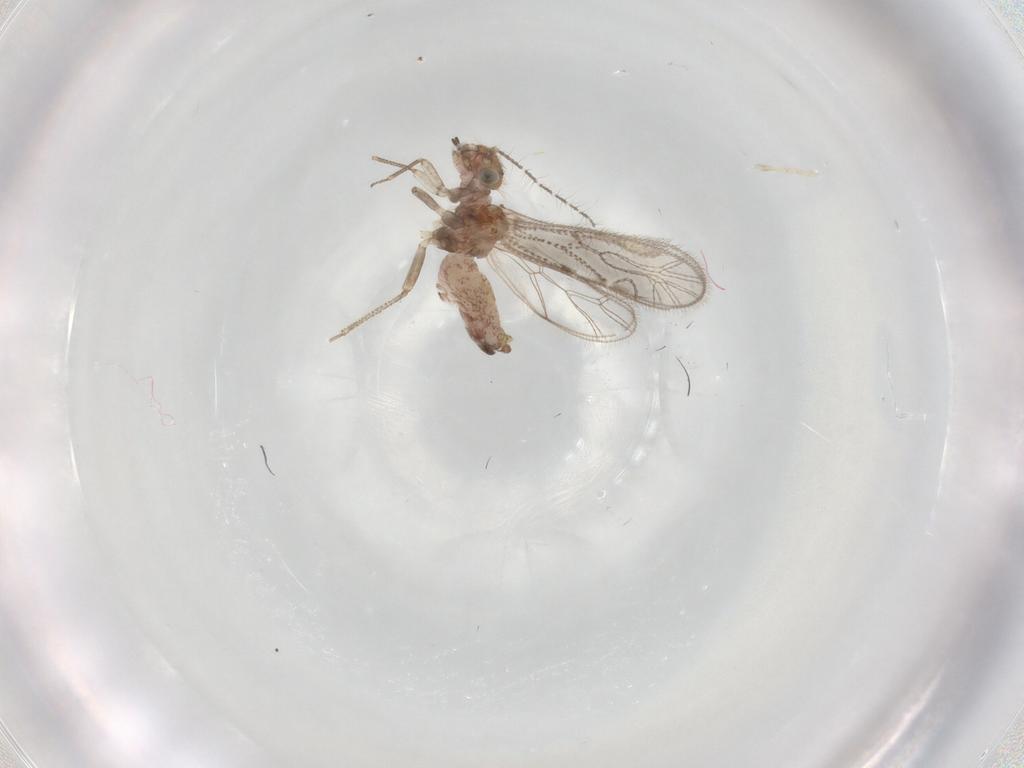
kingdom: Animalia
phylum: Arthropoda
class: Insecta
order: Psocodea
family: Cladiopsocidae
